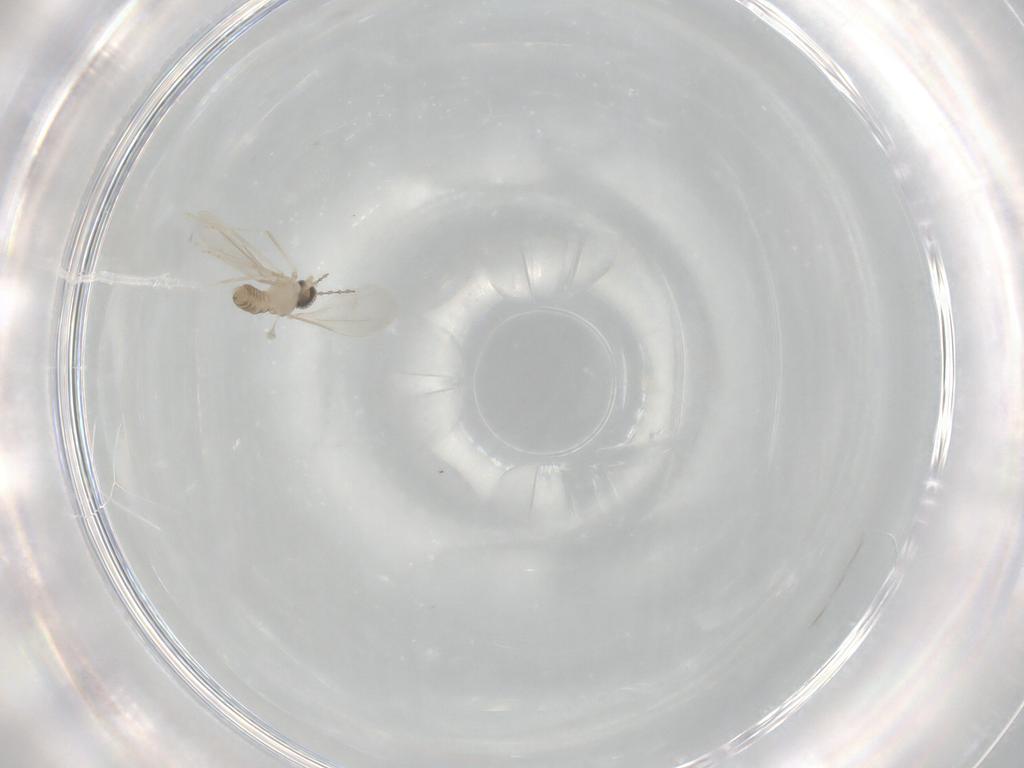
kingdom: Animalia
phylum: Arthropoda
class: Insecta
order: Diptera
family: Cecidomyiidae
